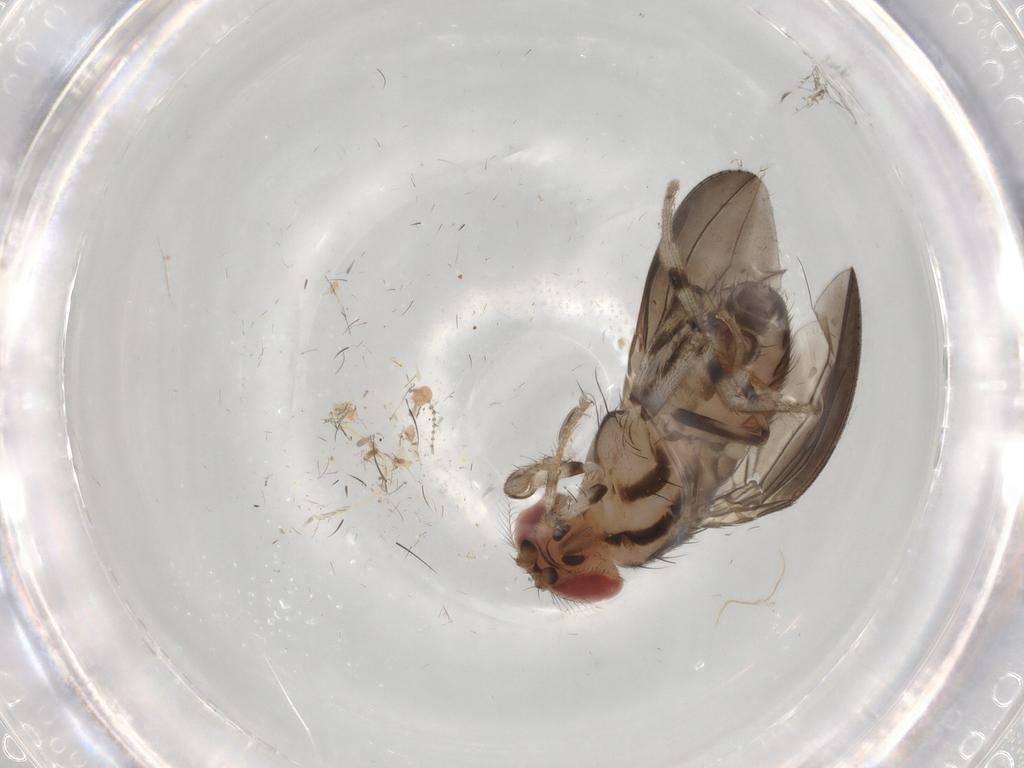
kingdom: Animalia
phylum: Arthropoda
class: Insecta
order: Diptera
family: Drosophilidae
